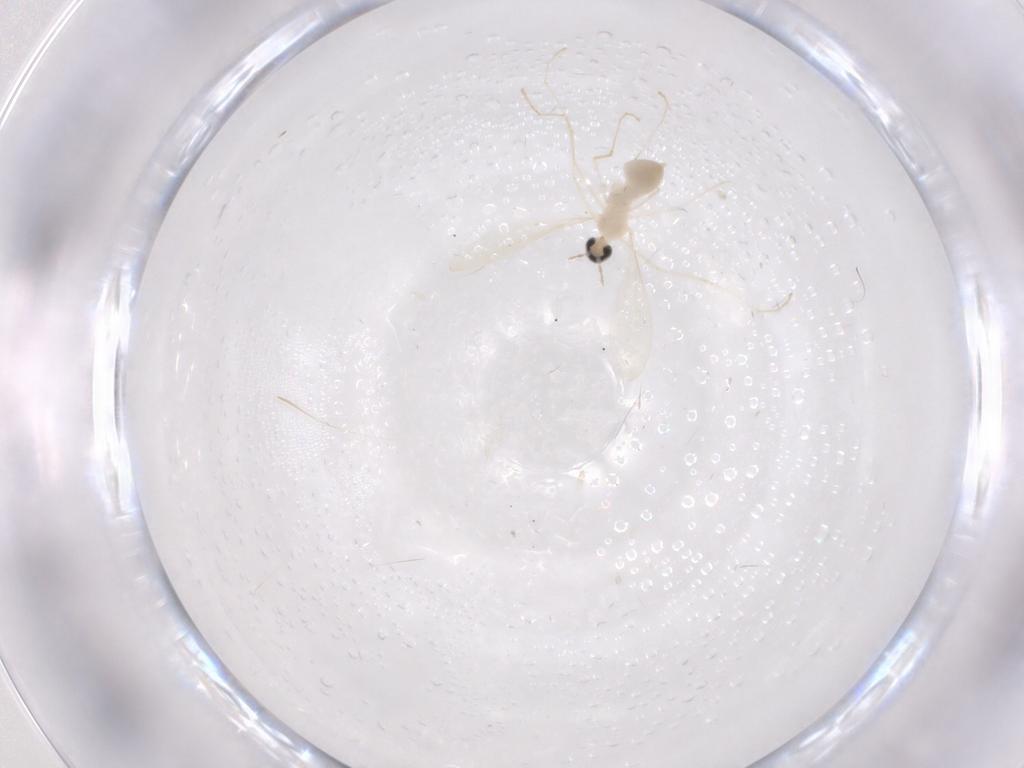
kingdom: Animalia
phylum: Arthropoda
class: Insecta
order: Diptera
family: Cecidomyiidae
